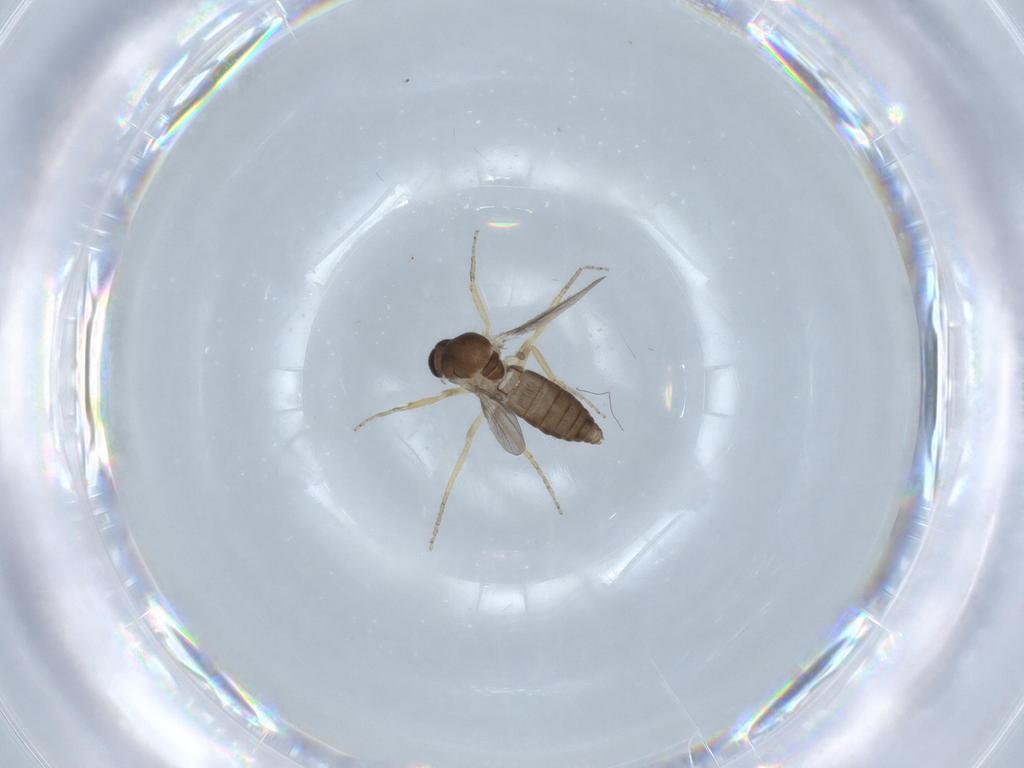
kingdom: Animalia
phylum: Arthropoda
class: Insecta
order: Diptera
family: Ceratopogonidae
